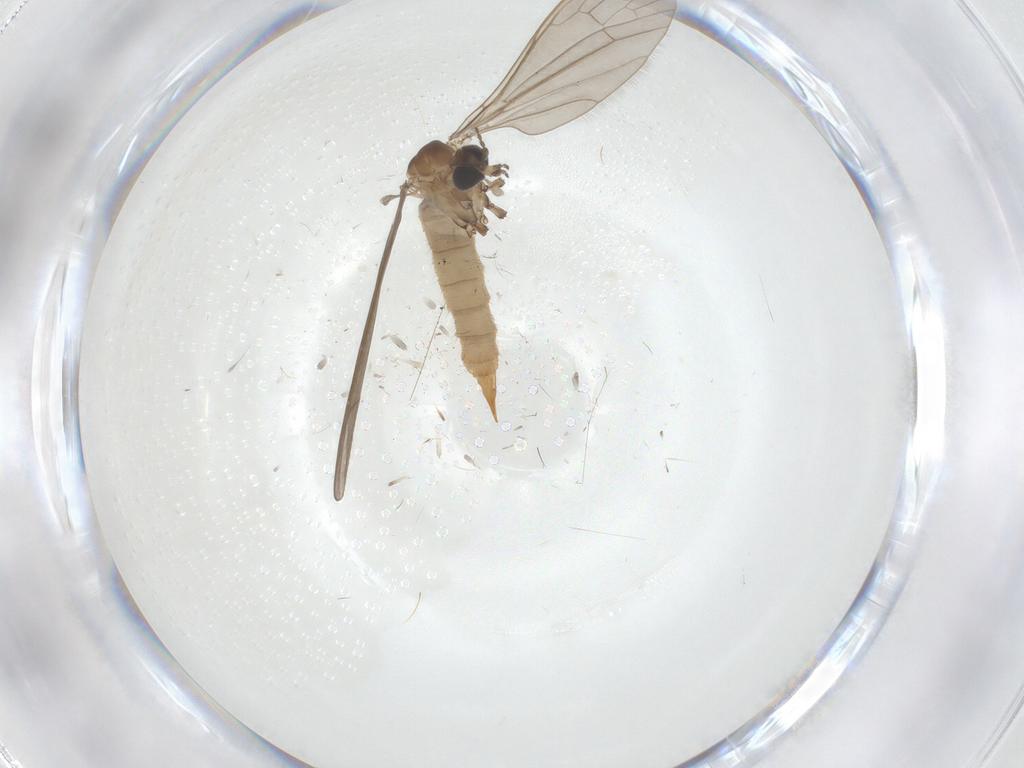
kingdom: Animalia
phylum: Arthropoda
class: Insecta
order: Diptera
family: Limoniidae
